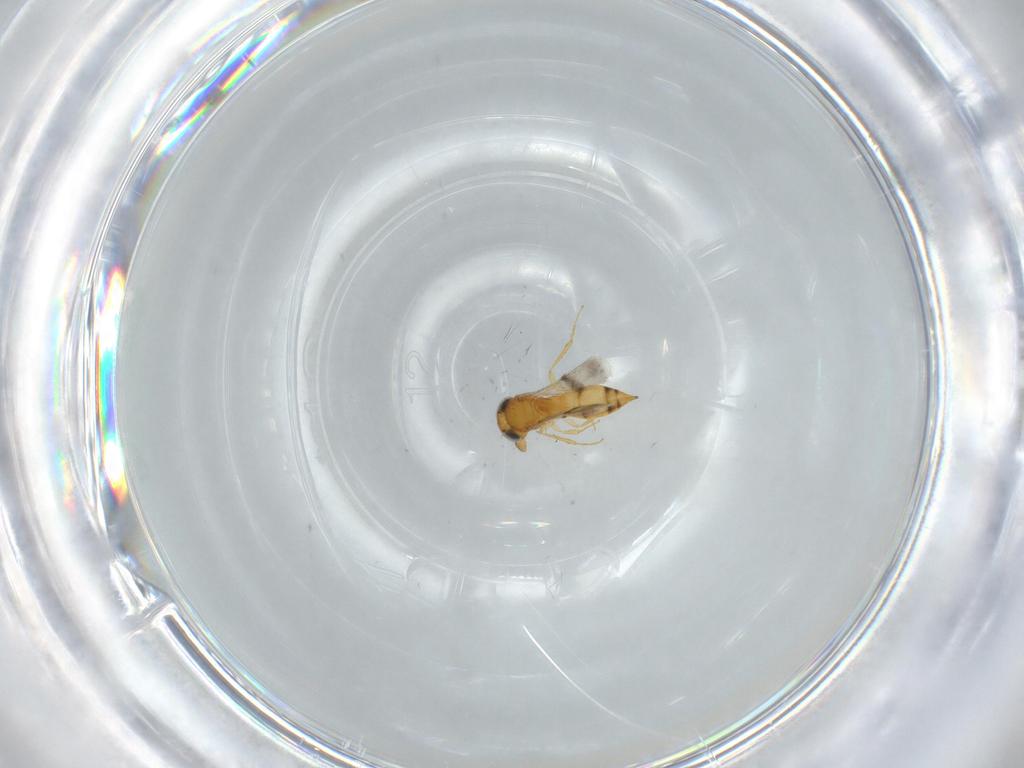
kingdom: Animalia
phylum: Arthropoda
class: Insecta
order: Hymenoptera
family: Scelionidae
